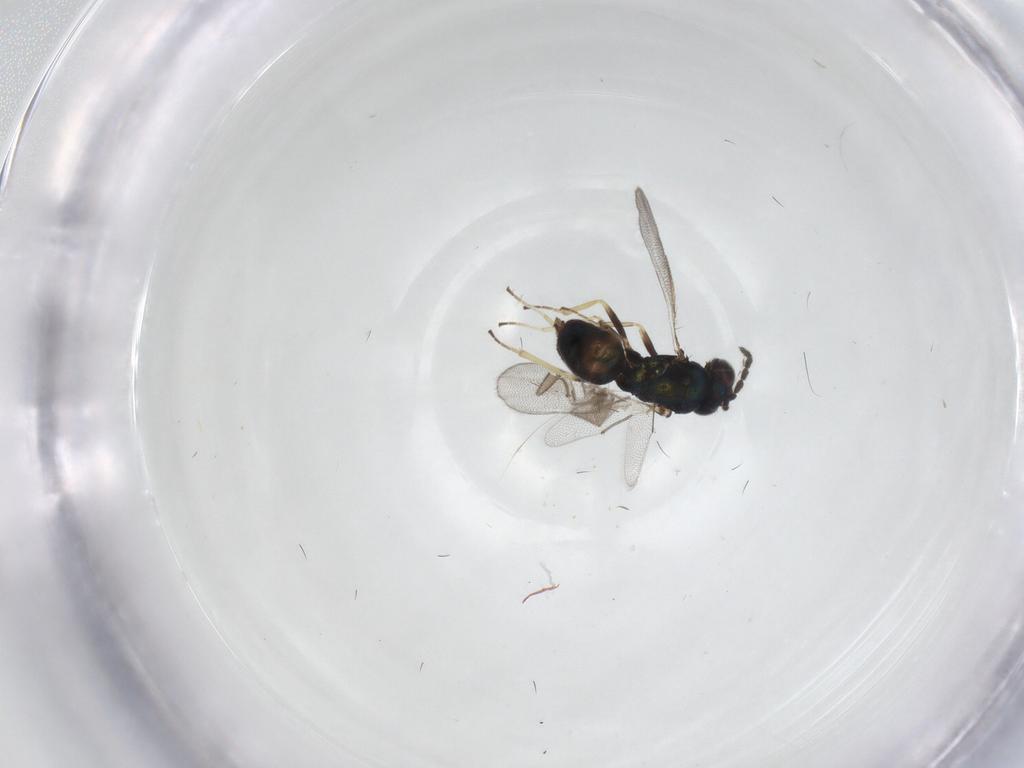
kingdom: Animalia
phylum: Arthropoda
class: Insecta
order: Hymenoptera
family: Eulophidae
